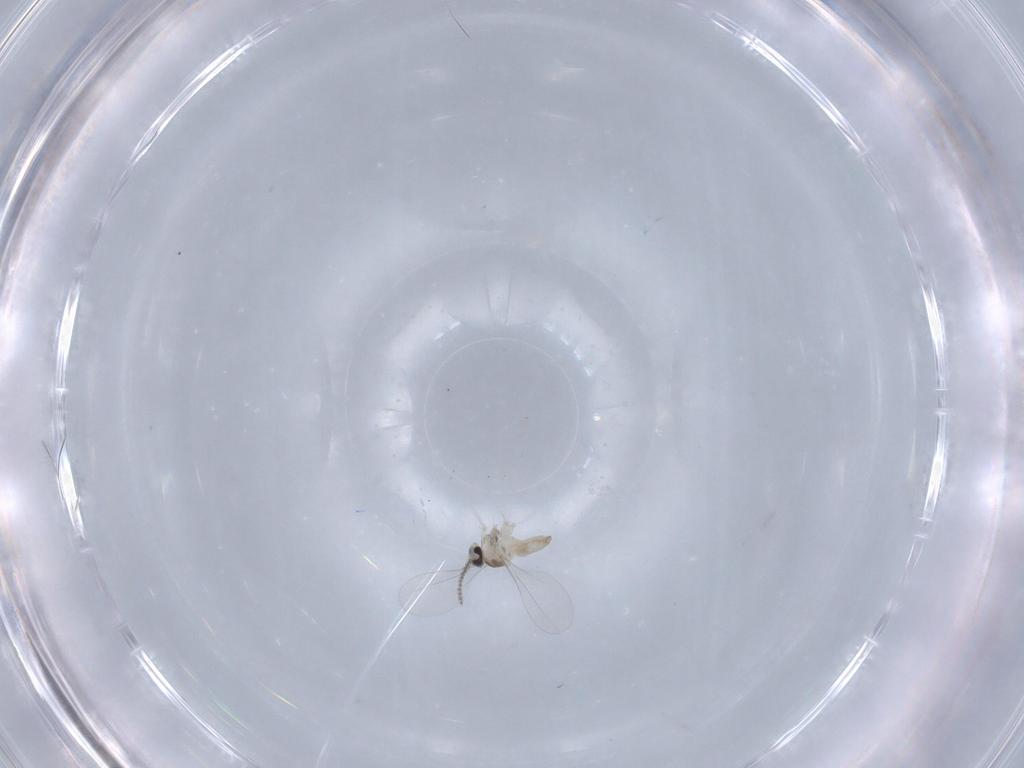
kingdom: Animalia
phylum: Arthropoda
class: Insecta
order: Diptera
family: Cecidomyiidae
